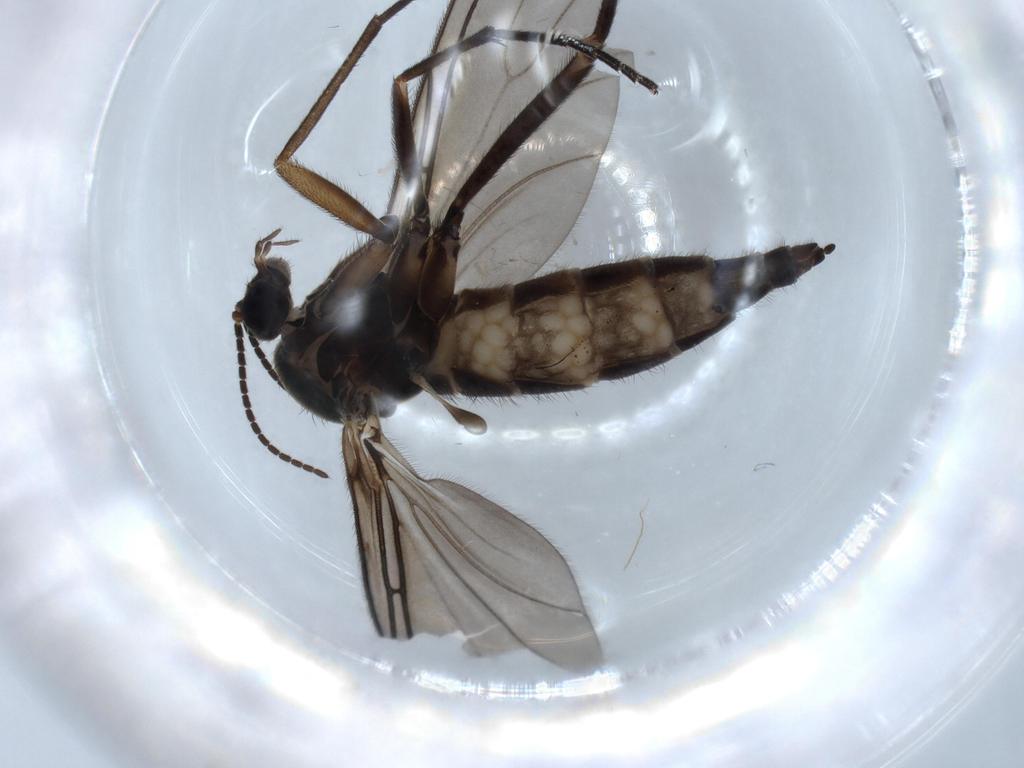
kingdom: Animalia
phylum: Arthropoda
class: Insecta
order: Diptera
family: Sciaridae
